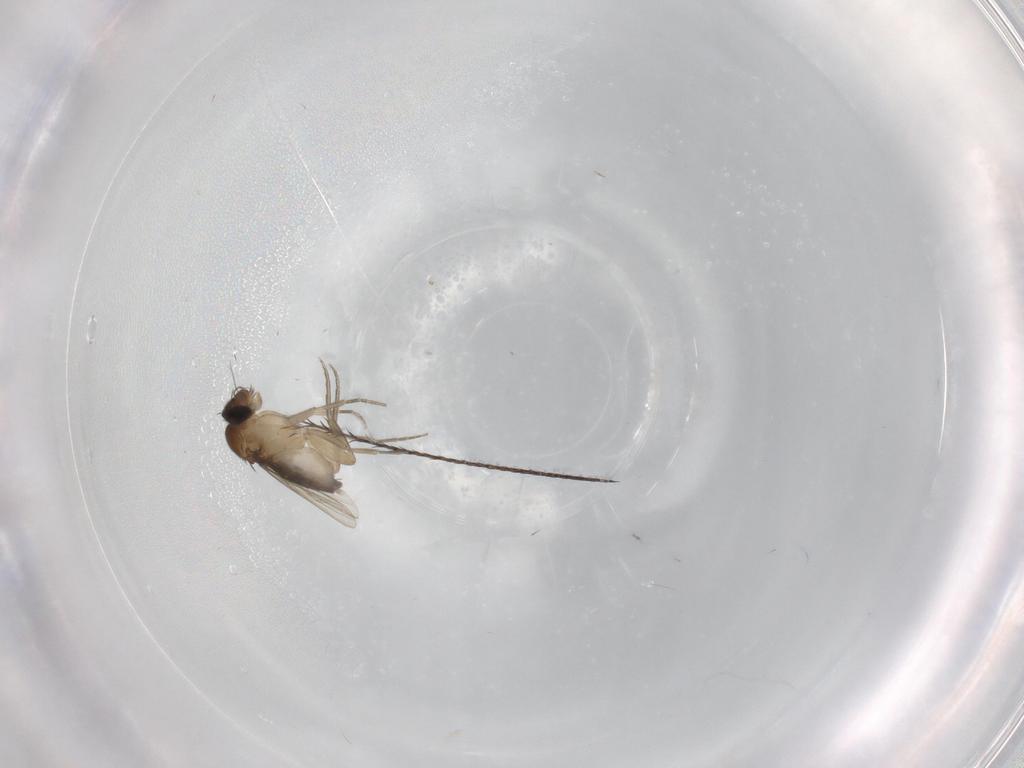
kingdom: Animalia
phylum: Arthropoda
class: Insecta
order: Diptera
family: Phoridae
